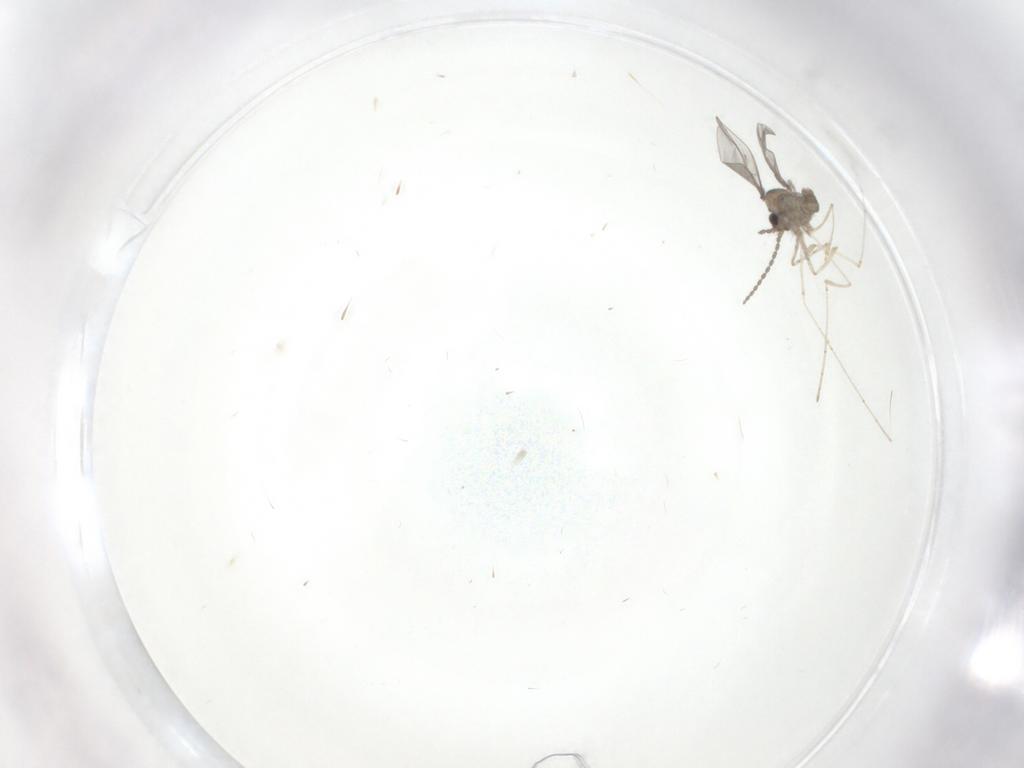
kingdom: Animalia
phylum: Arthropoda
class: Insecta
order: Diptera
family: Cecidomyiidae
